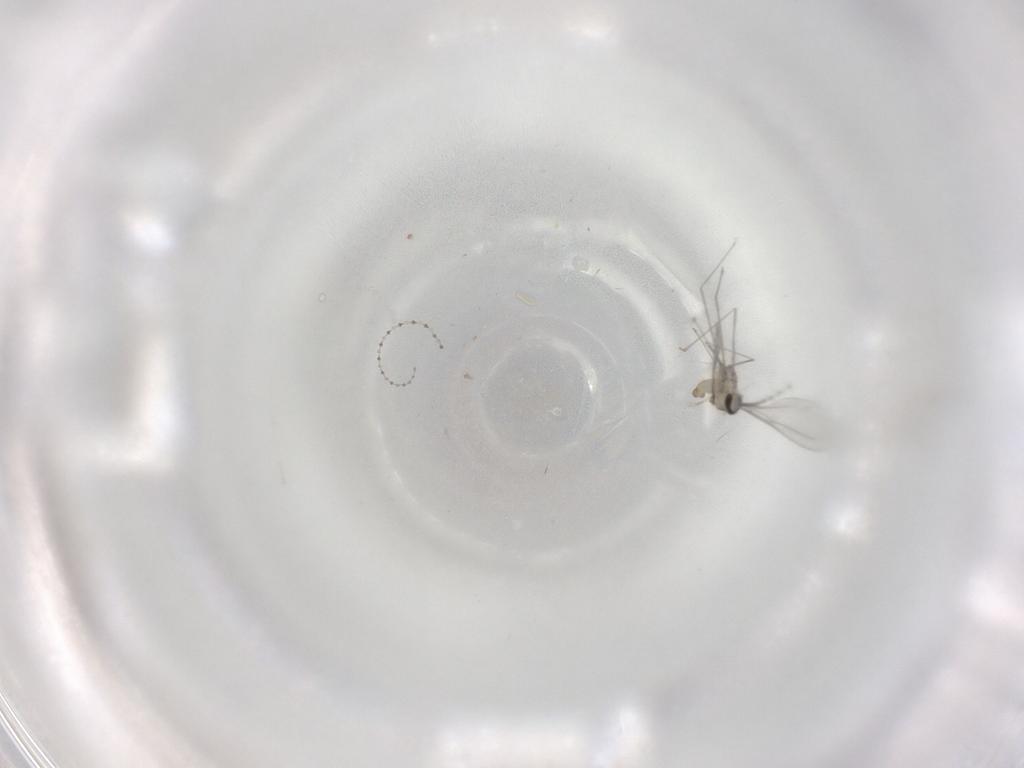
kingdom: Animalia
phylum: Arthropoda
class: Insecta
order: Diptera
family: Cecidomyiidae
